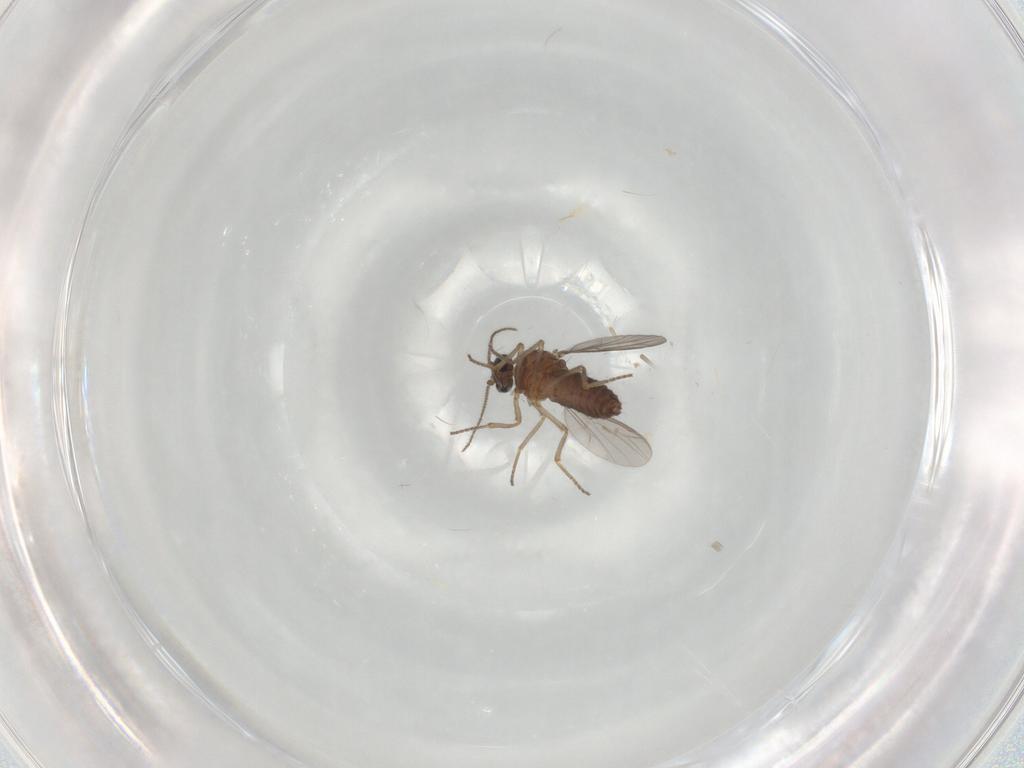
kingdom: Animalia
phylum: Arthropoda
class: Insecta
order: Diptera
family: Ceratopogonidae
